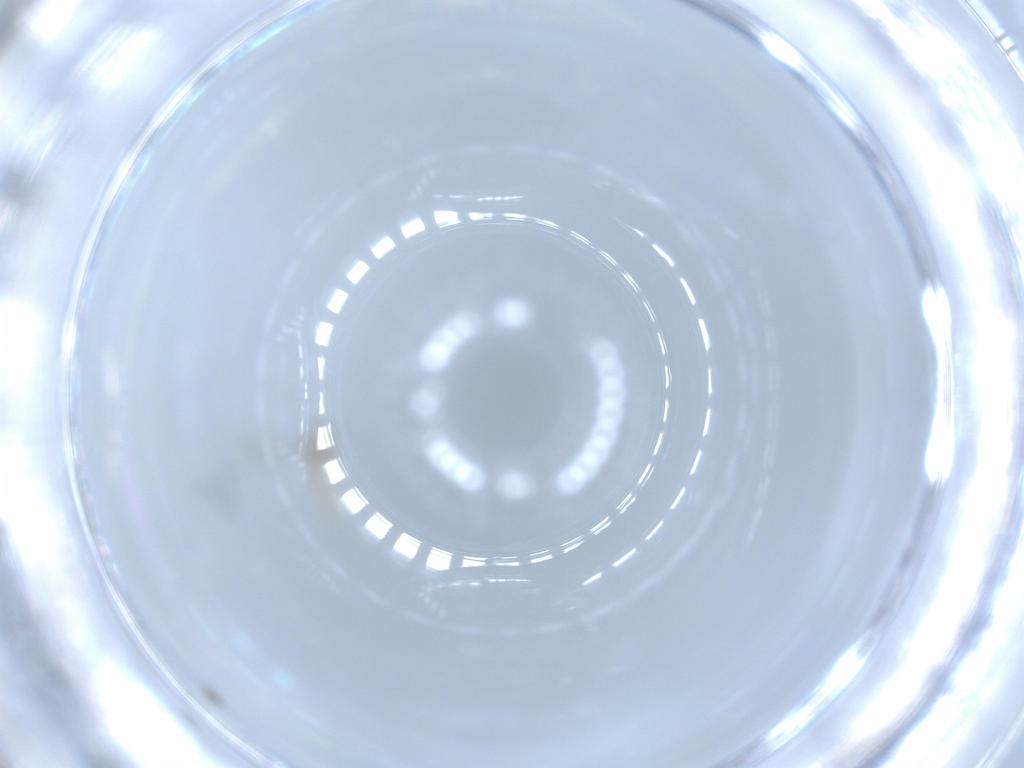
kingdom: Animalia
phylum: Arthropoda
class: Insecta
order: Diptera
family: Cecidomyiidae
